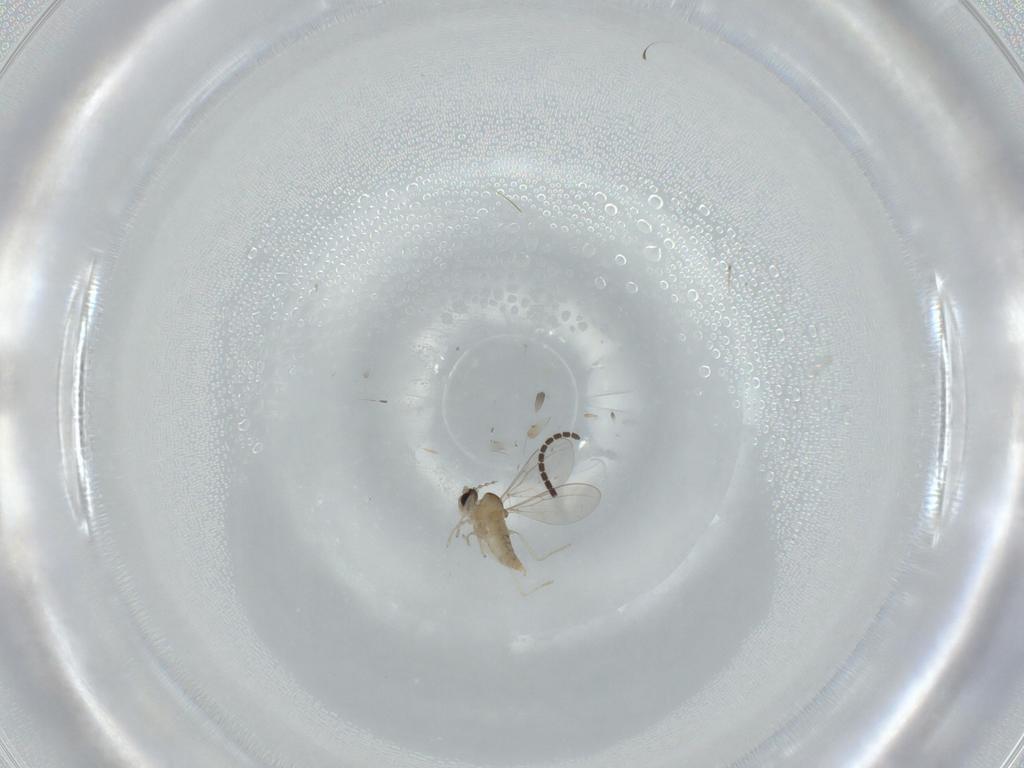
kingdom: Animalia
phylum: Arthropoda
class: Insecta
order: Diptera
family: Cecidomyiidae
